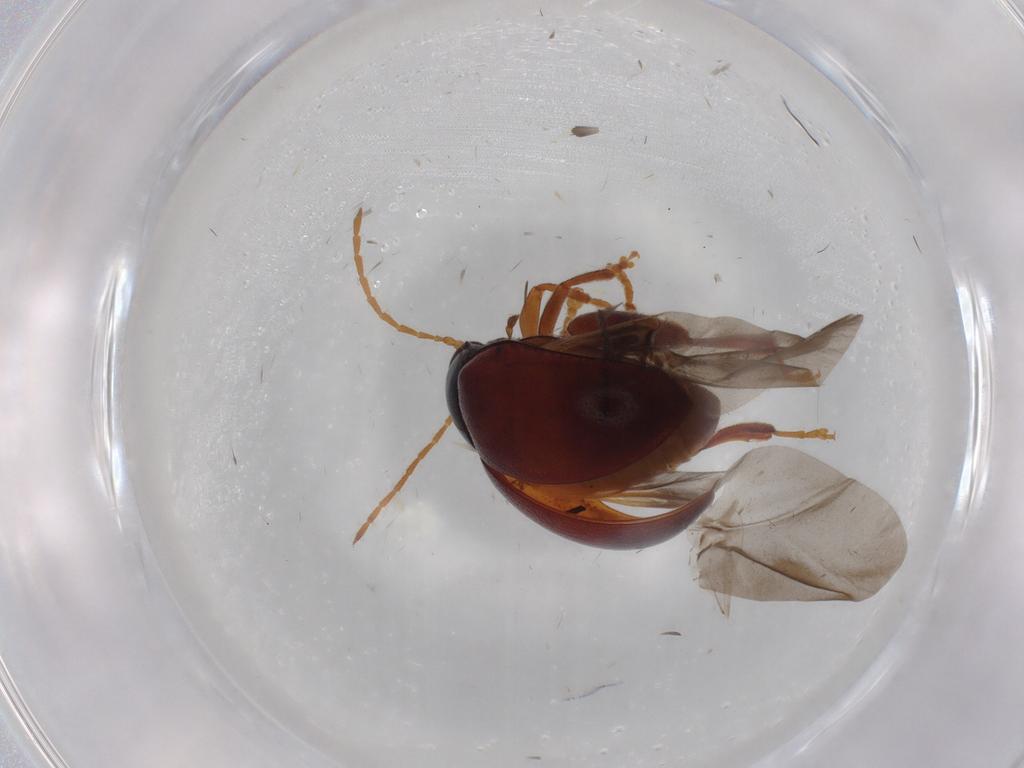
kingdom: Animalia
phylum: Arthropoda
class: Insecta
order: Coleoptera
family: Chrysomelidae
